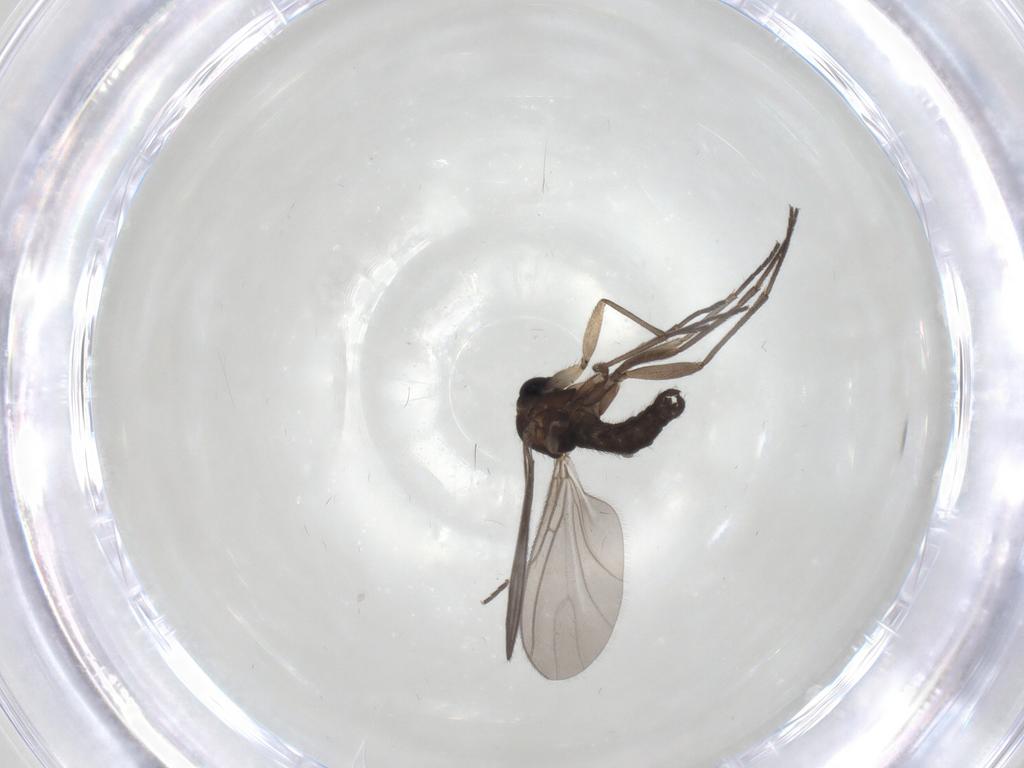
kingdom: Animalia
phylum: Arthropoda
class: Insecta
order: Diptera
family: Sciaridae
